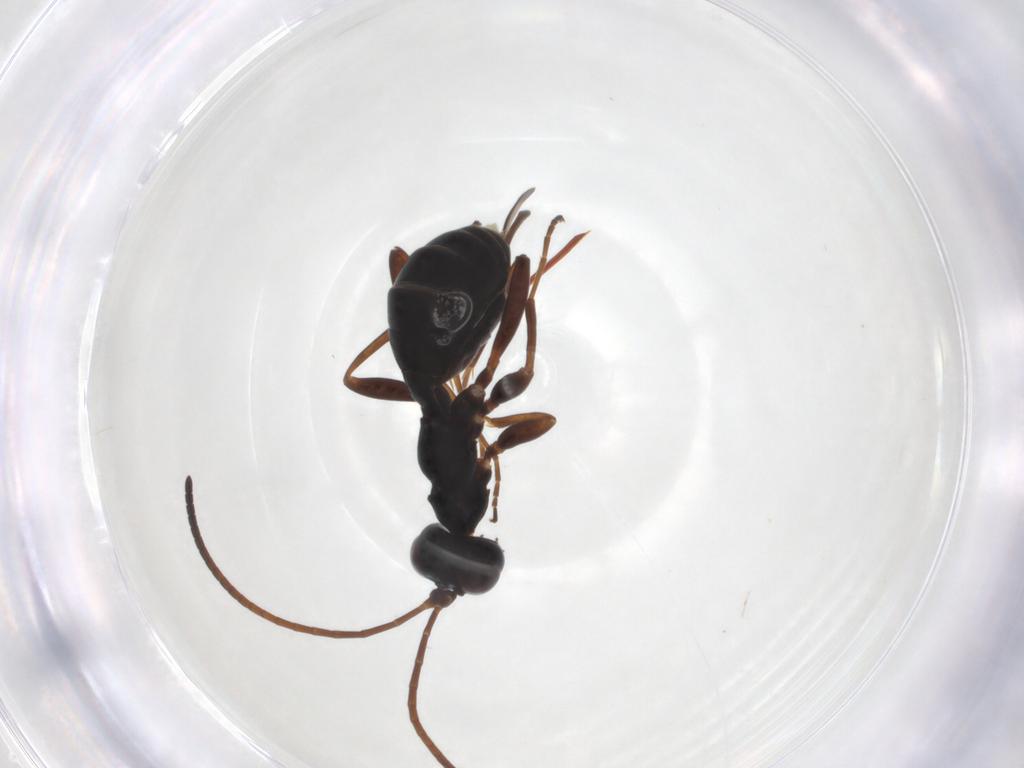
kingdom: Animalia
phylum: Arthropoda
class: Insecta
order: Hymenoptera
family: Ichneumonidae
